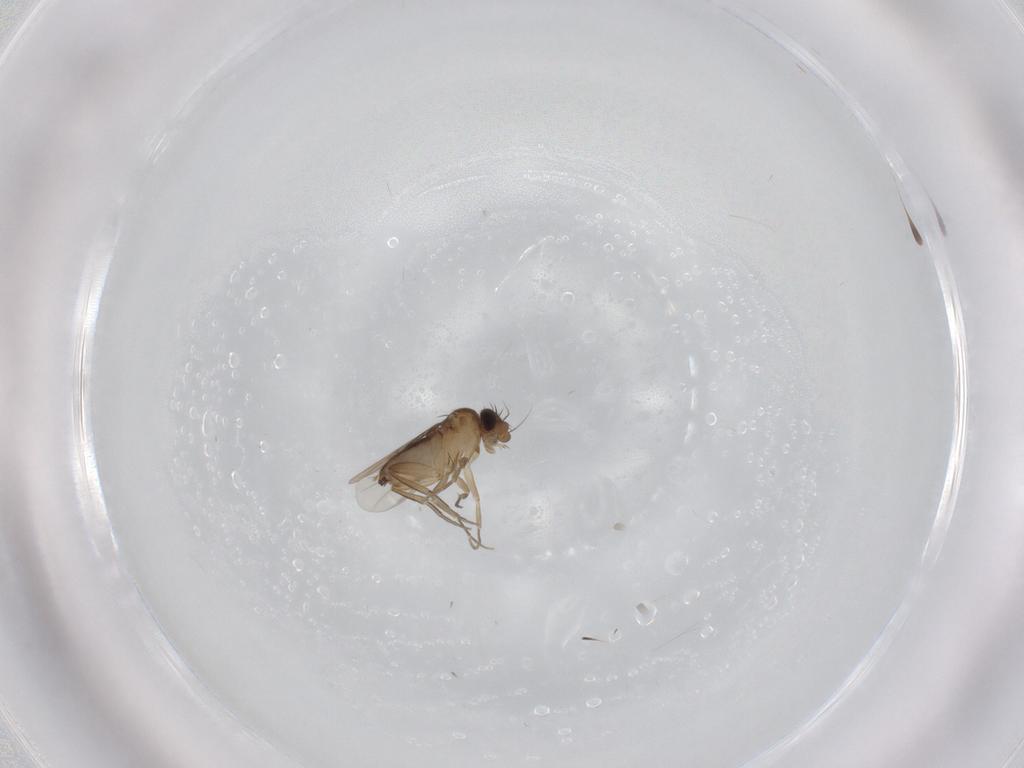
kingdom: Animalia
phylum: Arthropoda
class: Insecta
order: Diptera
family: Phoridae
